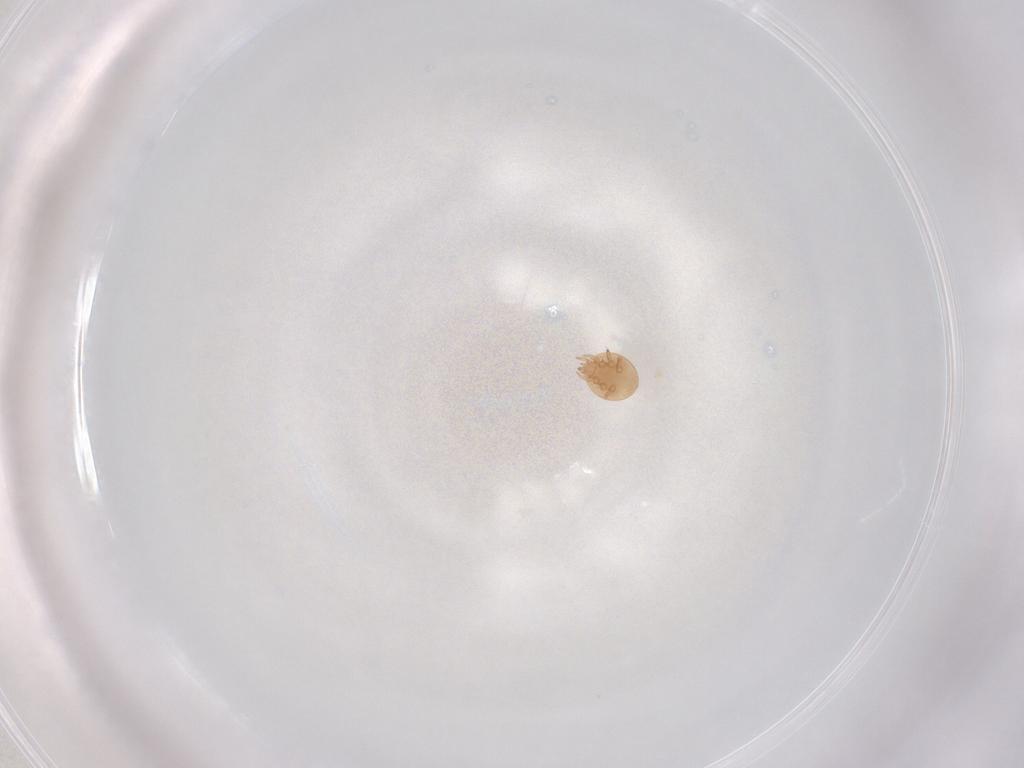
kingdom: Animalia
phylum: Arthropoda
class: Arachnida
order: Mesostigmata
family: Trematuridae
